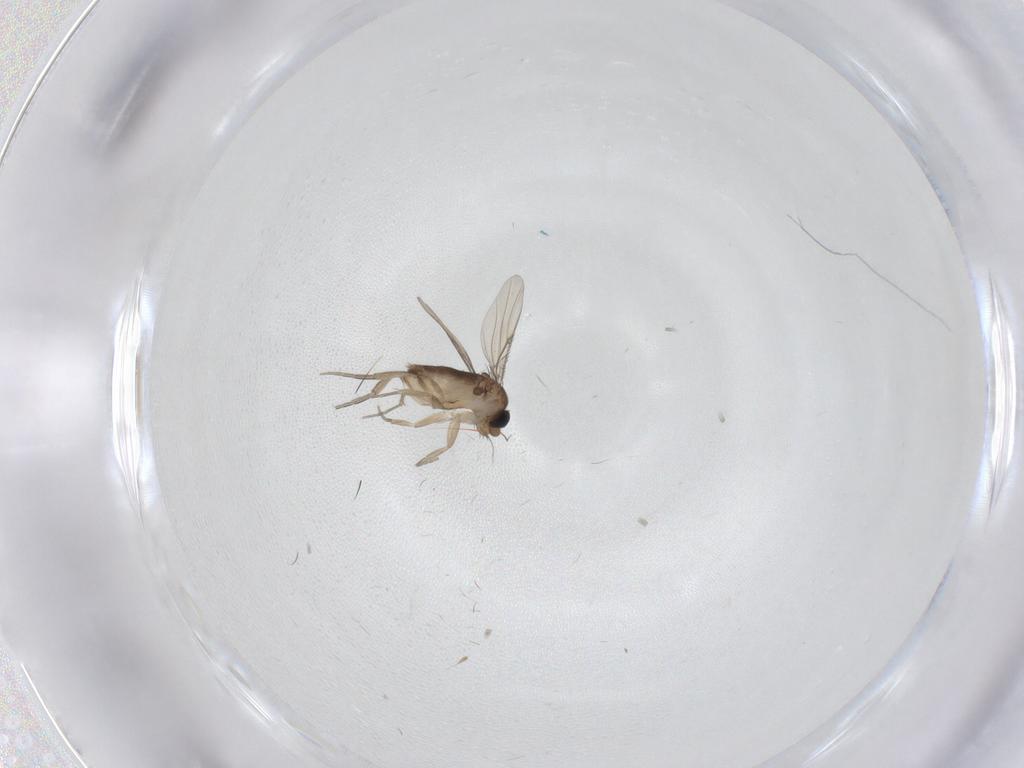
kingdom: Animalia
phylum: Arthropoda
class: Insecta
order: Diptera
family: Phoridae
